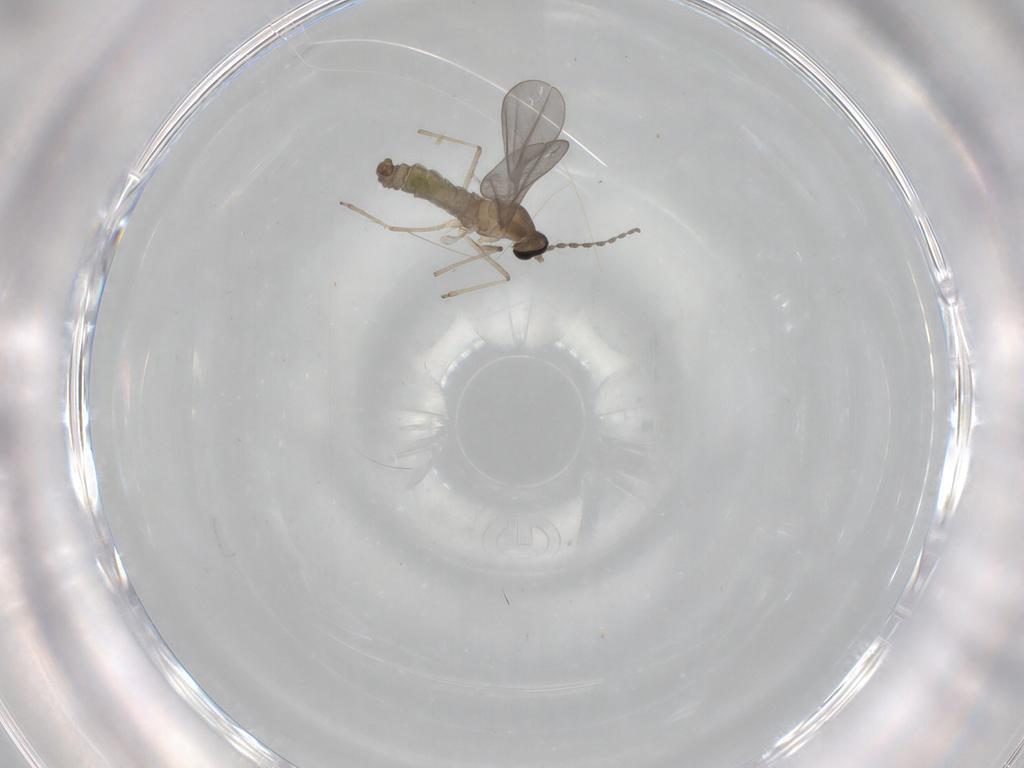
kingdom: Animalia
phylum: Arthropoda
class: Insecta
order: Diptera
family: Cecidomyiidae
